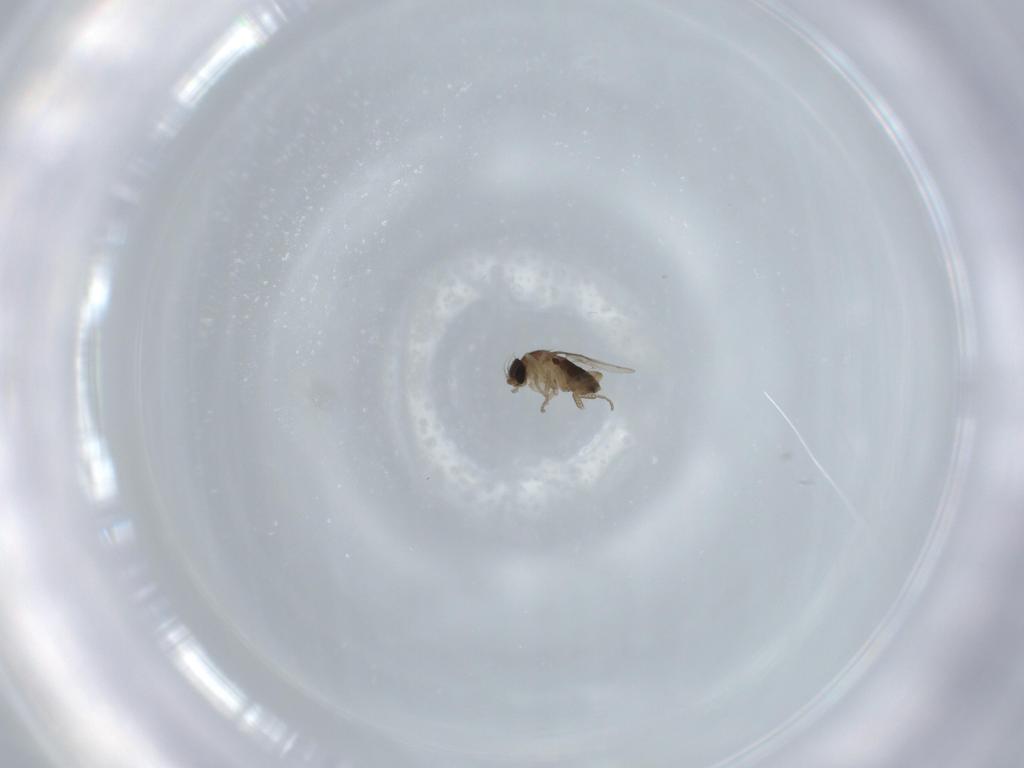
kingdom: Animalia
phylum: Arthropoda
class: Insecta
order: Diptera
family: Phoridae
